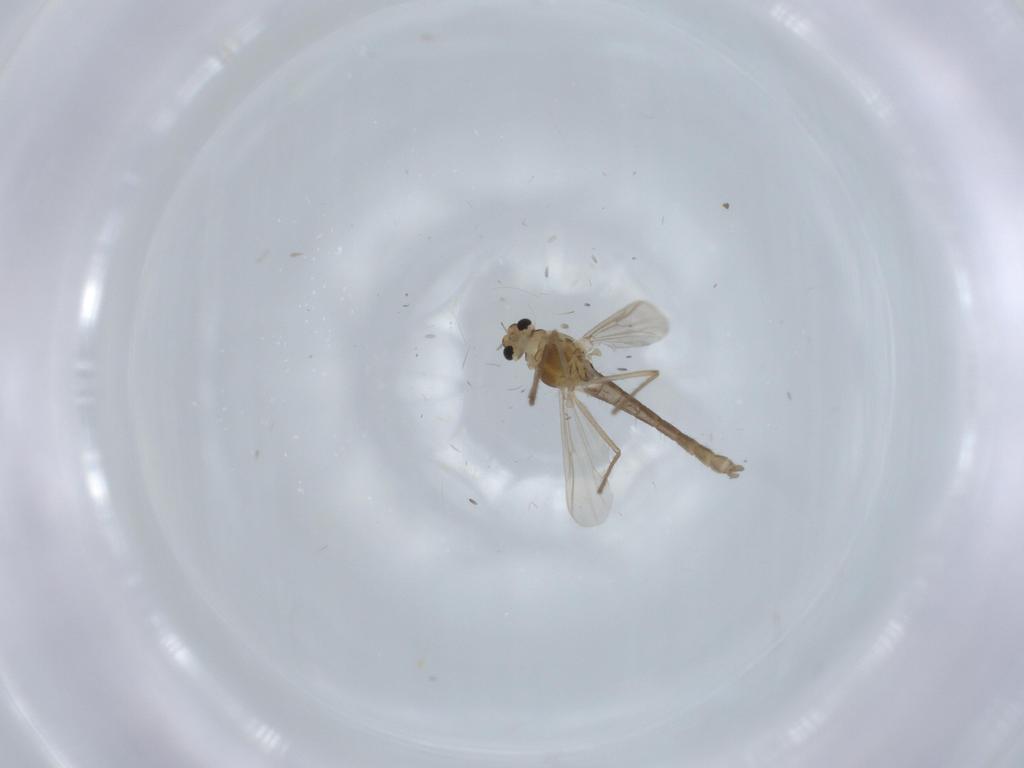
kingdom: Animalia
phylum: Arthropoda
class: Insecta
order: Diptera
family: Chironomidae
